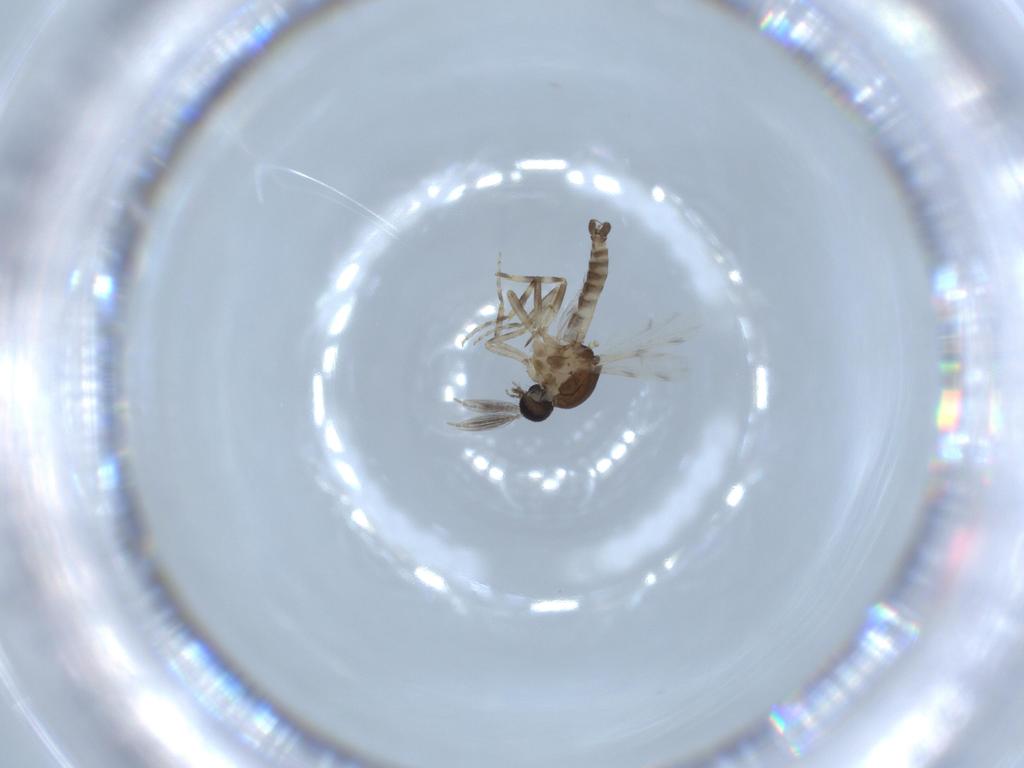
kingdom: Animalia
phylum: Arthropoda
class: Insecta
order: Diptera
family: Ceratopogonidae
